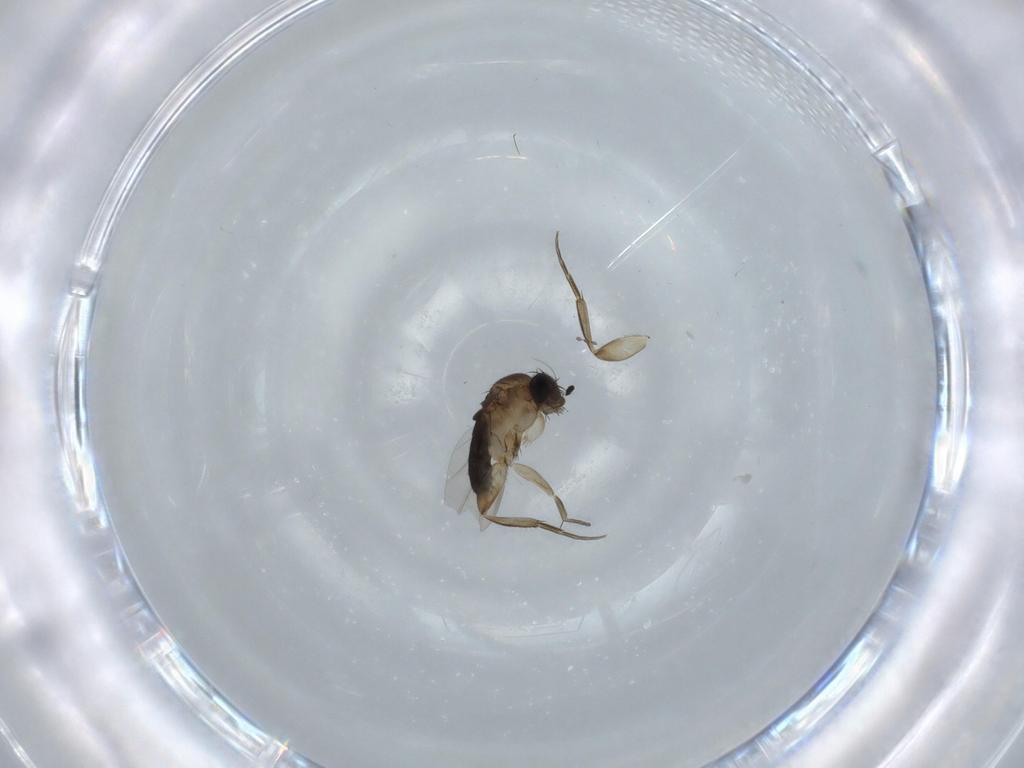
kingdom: Animalia
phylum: Arthropoda
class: Insecta
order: Diptera
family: Phoridae
